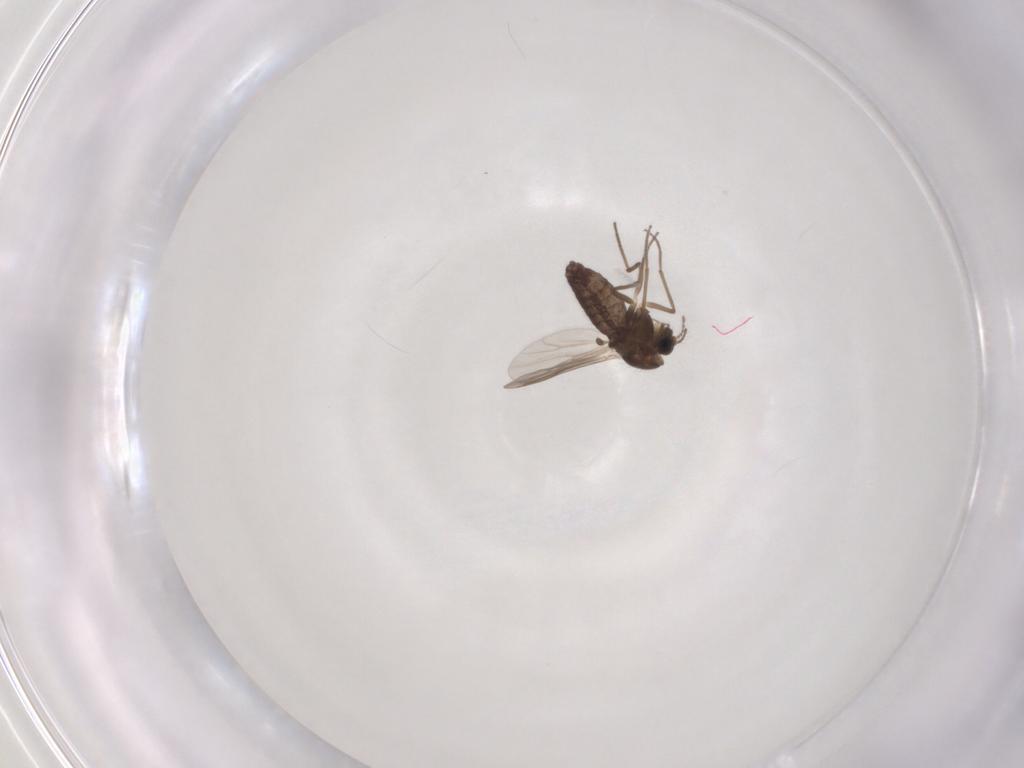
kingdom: Animalia
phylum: Arthropoda
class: Insecta
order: Diptera
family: Chironomidae
